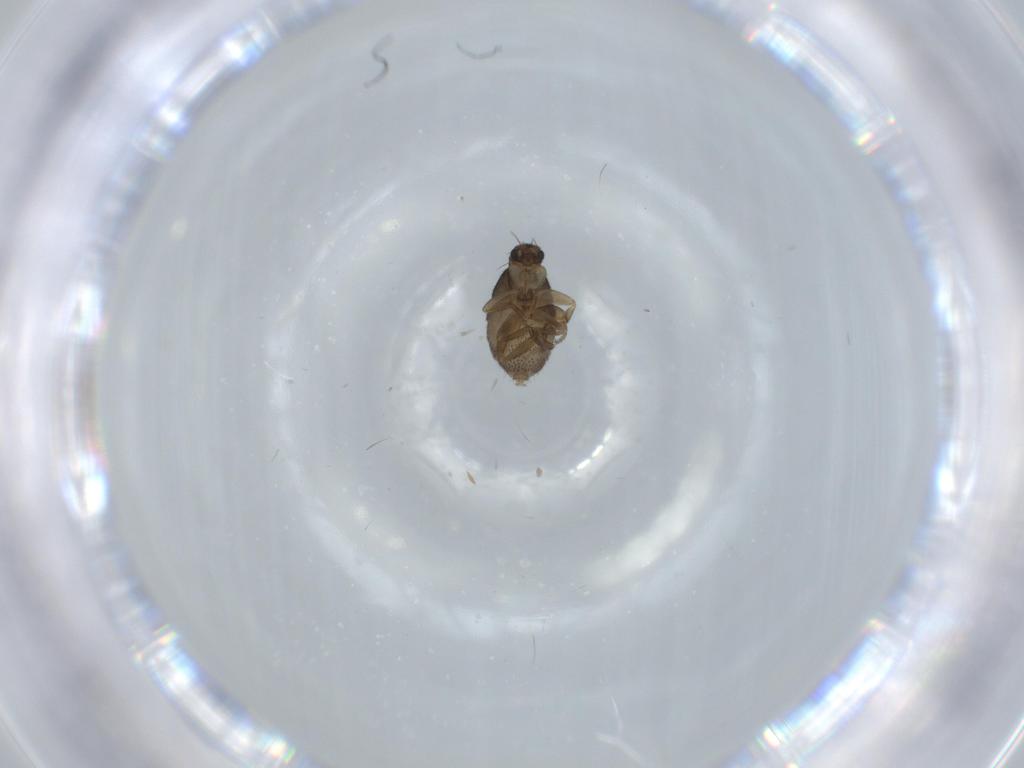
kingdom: Animalia
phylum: Arthropoda
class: Insecta
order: Diptera
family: Phoridae
